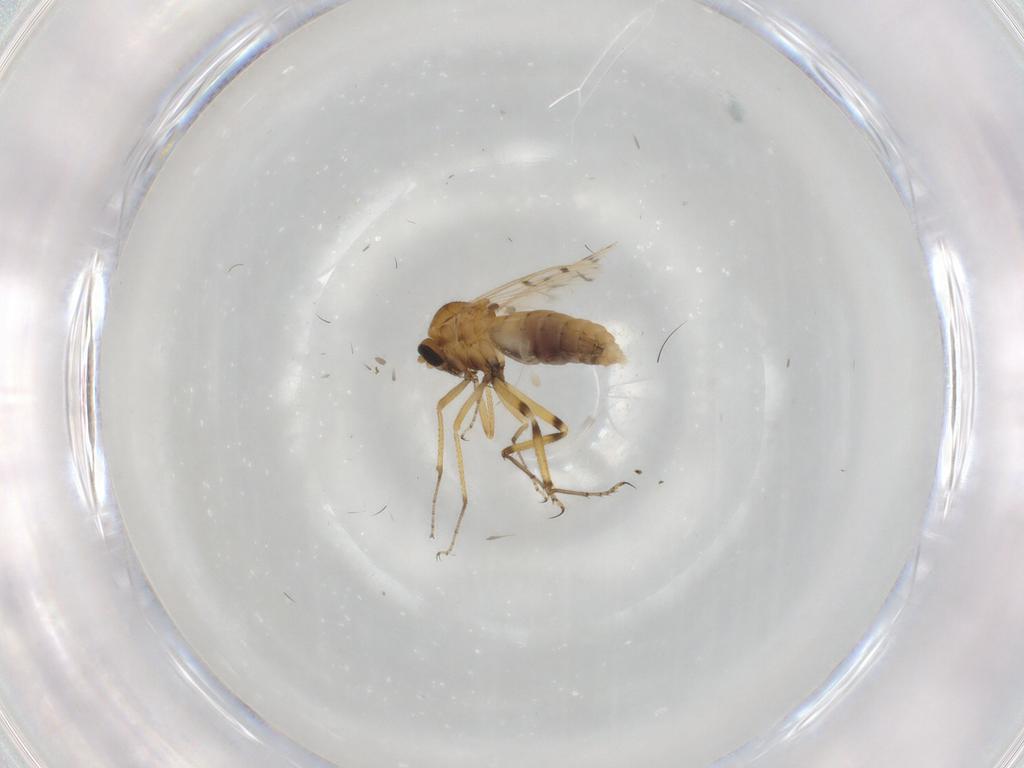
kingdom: Animalia
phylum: Arthropoda
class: Insecta
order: Diptera
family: Ceratopogonidae
